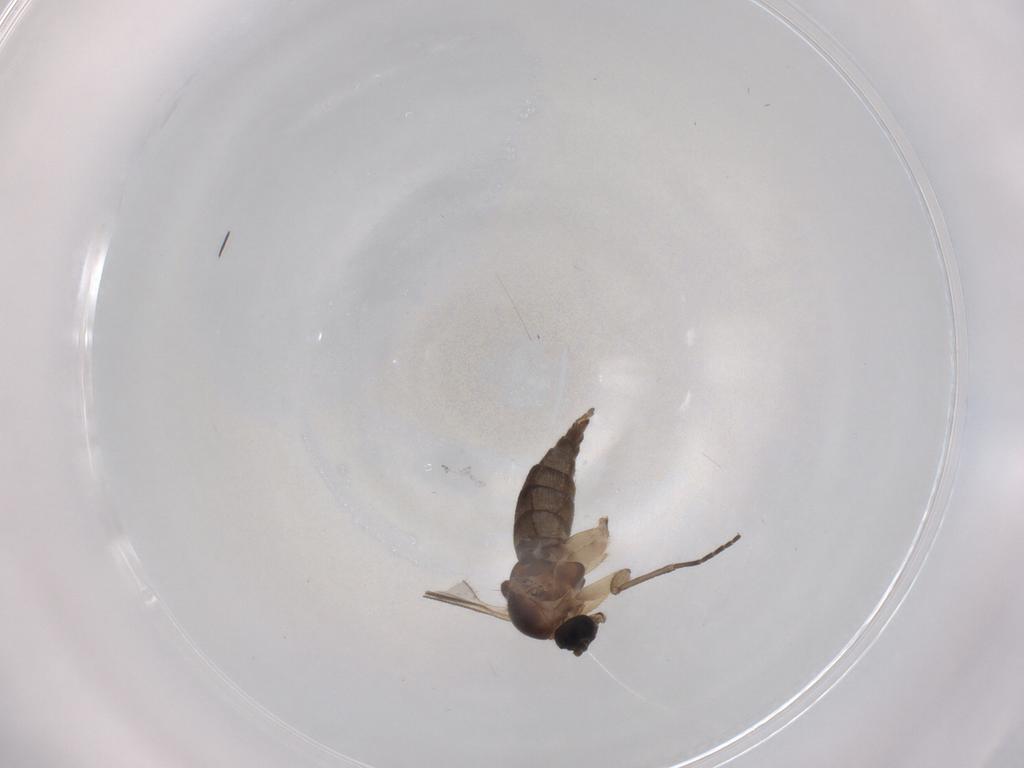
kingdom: Animalia
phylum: Arthropoda
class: Insecta
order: Diptera
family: Sciaridae
